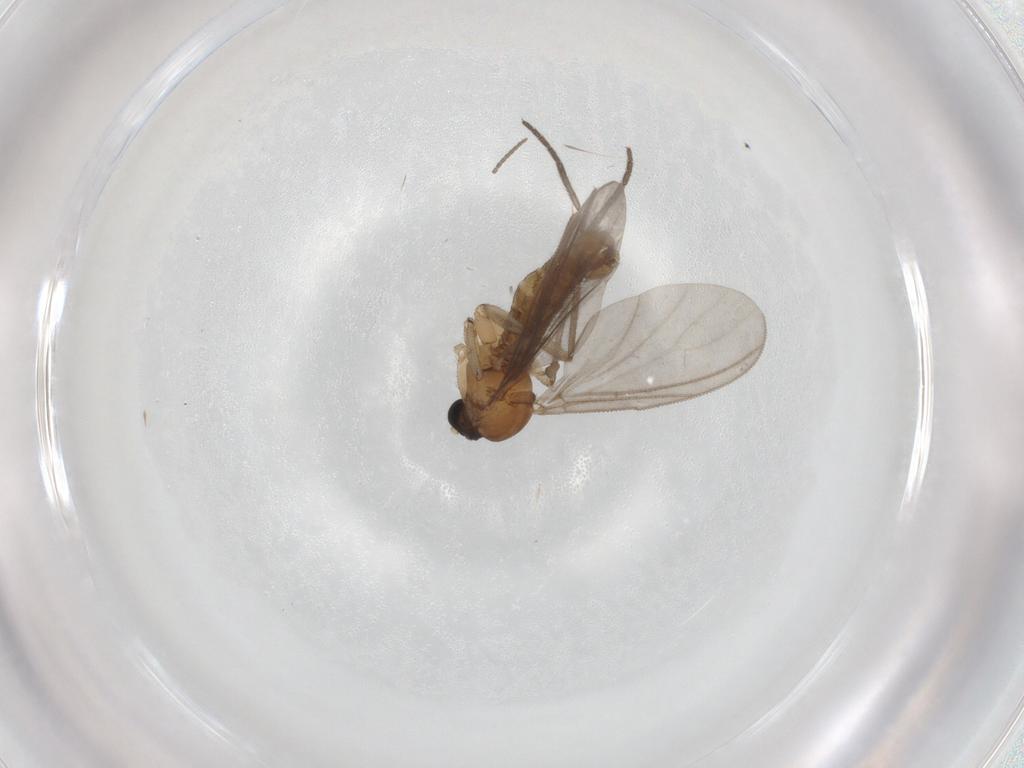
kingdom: Animalia
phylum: Arthropoda
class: Insecta
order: Diptera
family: Sciaridae
